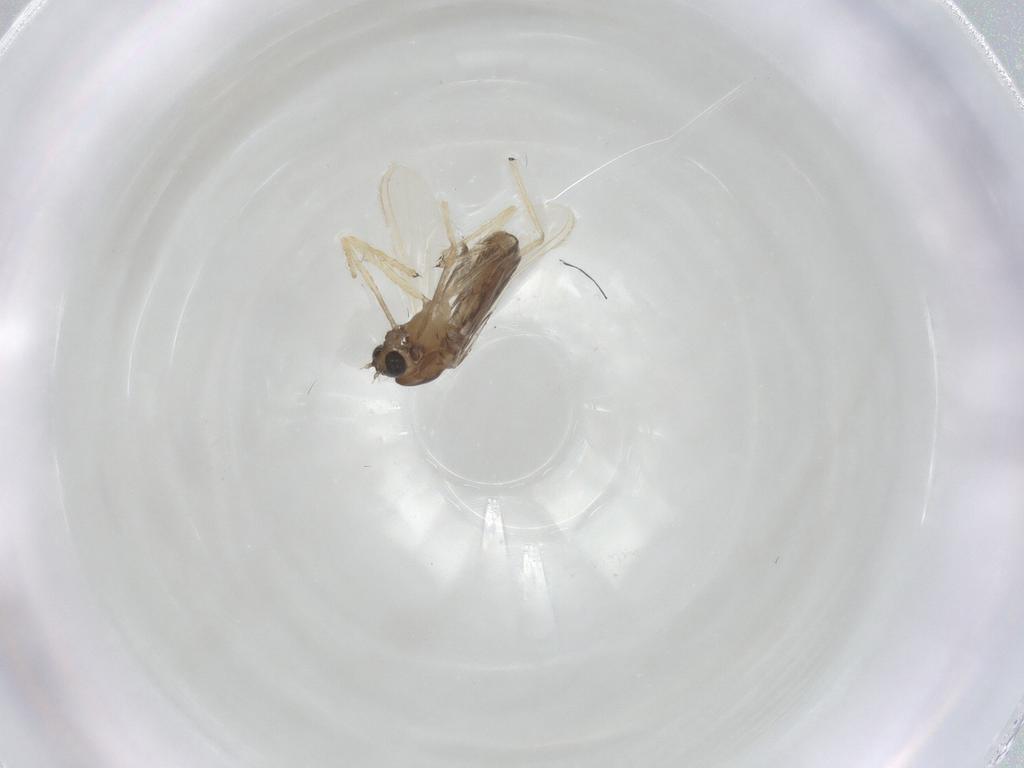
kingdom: Animalia
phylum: Arthropoda
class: Insecta
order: Diptera
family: Chironomidae
